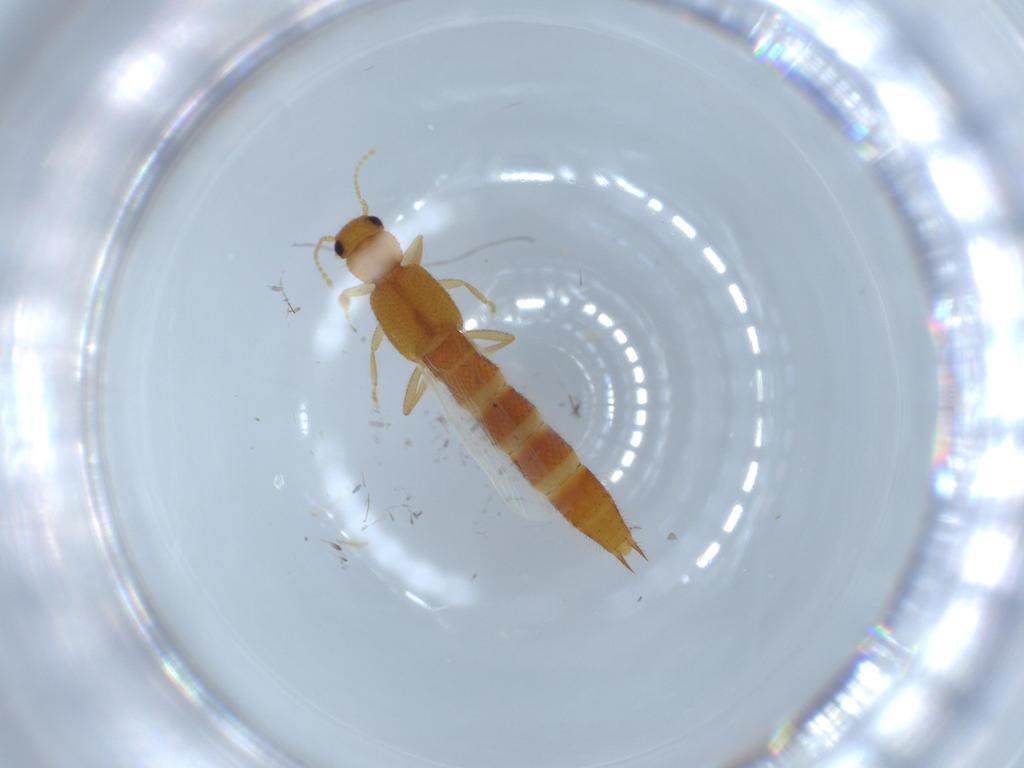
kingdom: Animalia
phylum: Arthropoda
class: Insecta
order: Coleoptera
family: Staphylinidae
